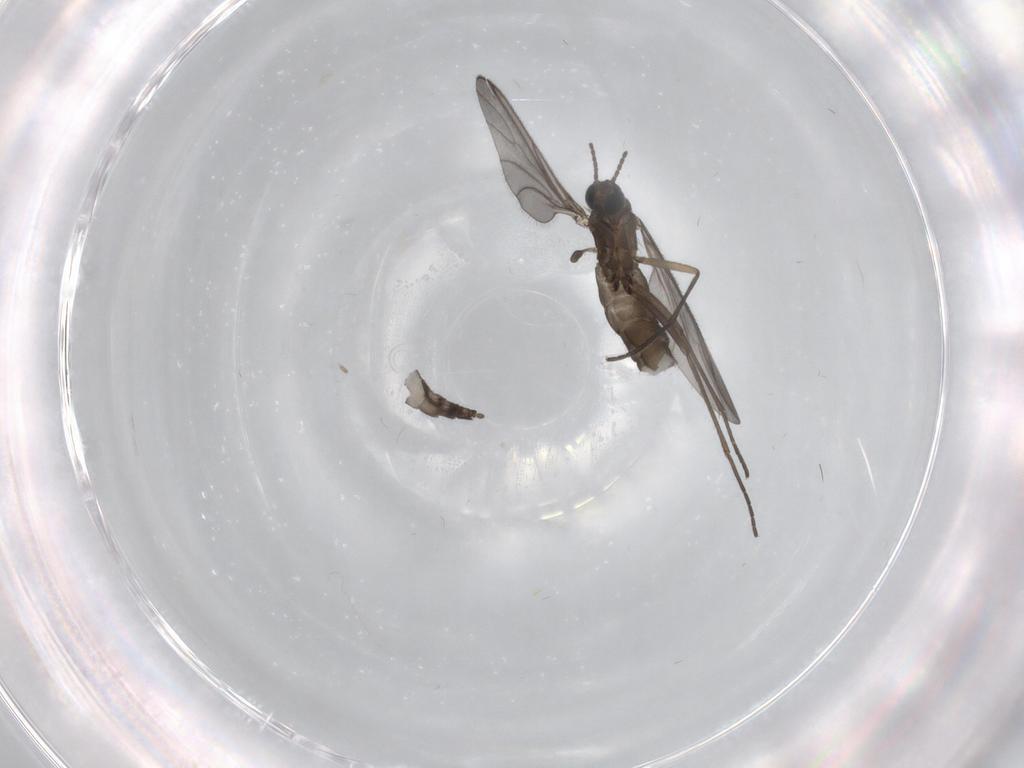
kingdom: Animalia
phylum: Arthropoda
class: Insecta
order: Diptera
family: Sciaridae
